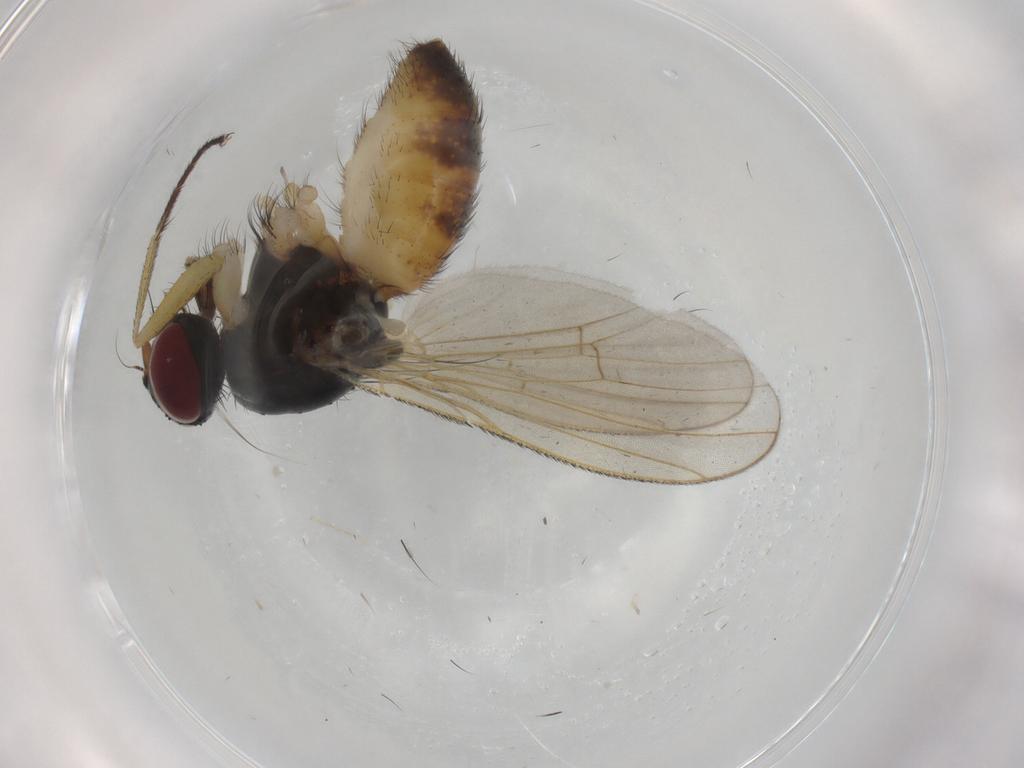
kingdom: Animalia
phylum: Arthropoda
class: Insecta
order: Diptera
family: Muscidae
